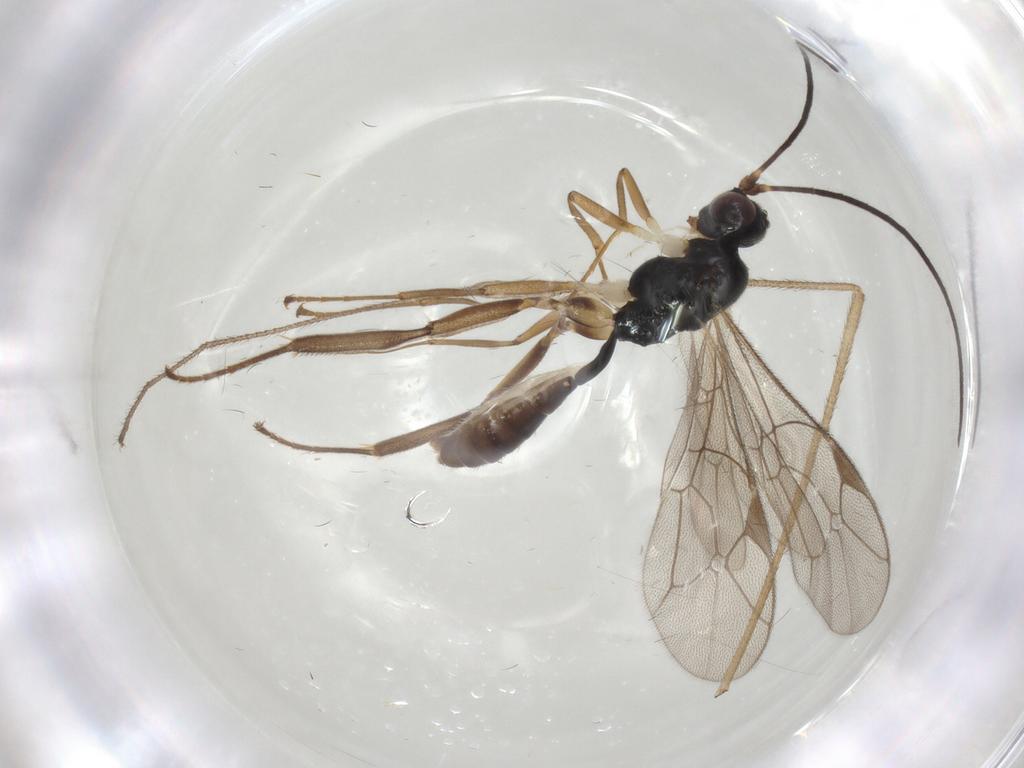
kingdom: Animalia
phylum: Arthropoda
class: Insecta
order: Hymenoptera
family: Ichneumonidae
